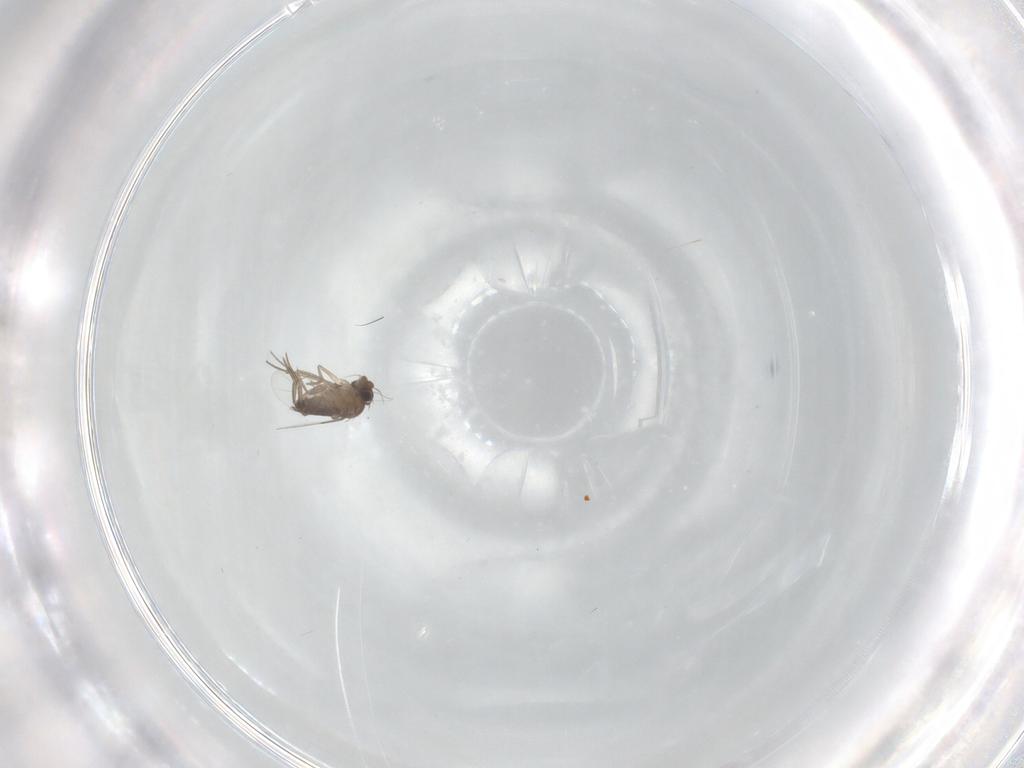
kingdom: Animalia
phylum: Arthropoda
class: Insecta
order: Diptera
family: Phoridae
